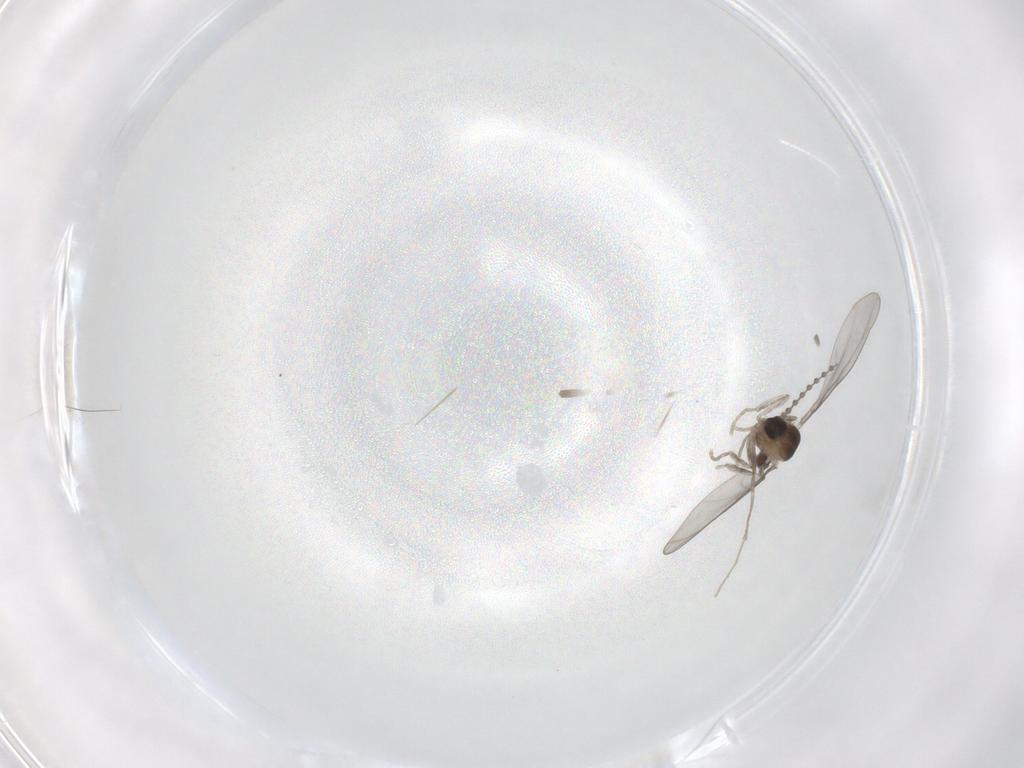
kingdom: Animalia
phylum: Arthropoda
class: Insecta
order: Diptera
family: Cecidomyiidae
